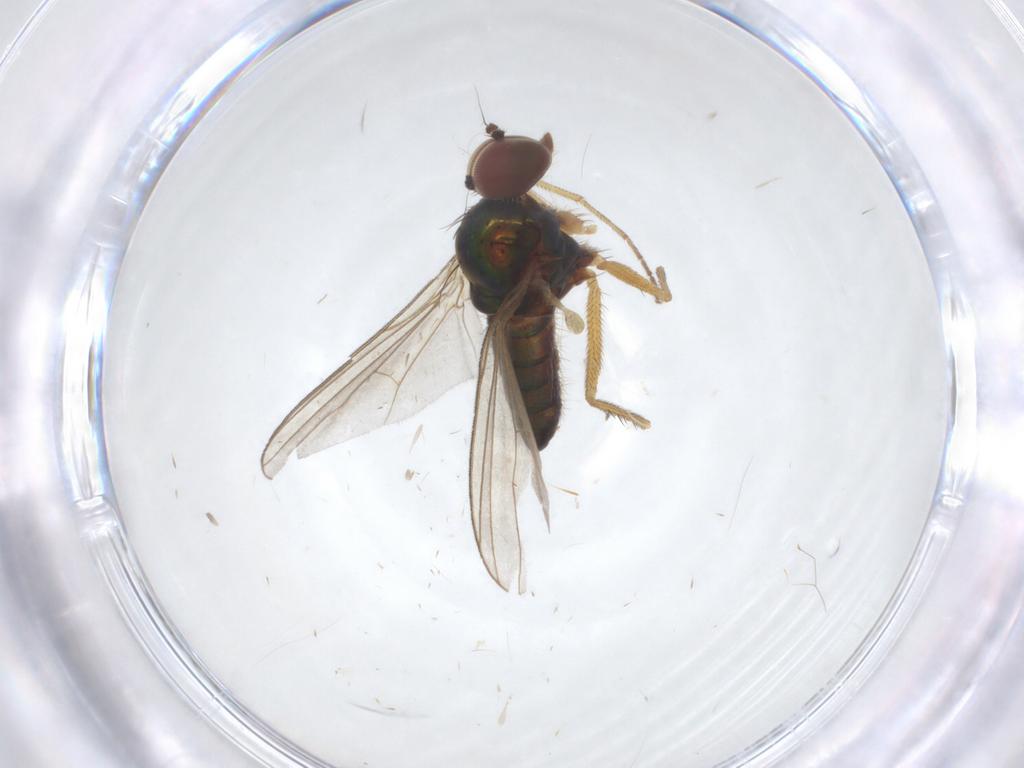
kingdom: Animalia
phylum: Arthropoda
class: Insecta
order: Diptera
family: Dolichopodidae
